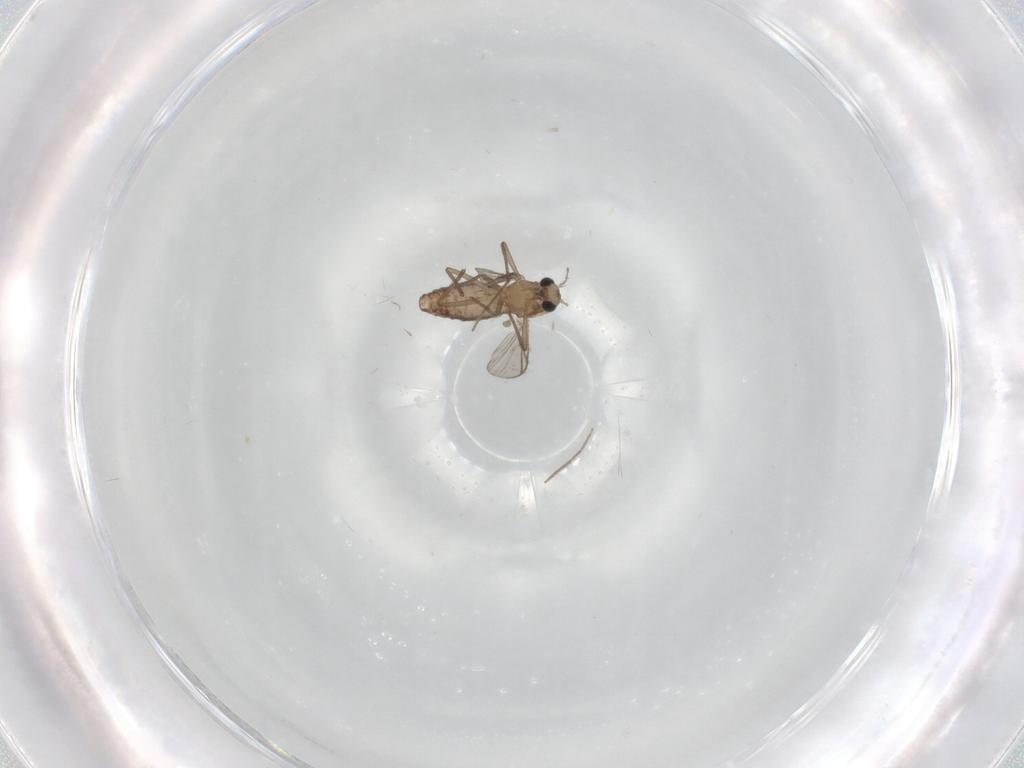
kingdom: Animalia
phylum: Arthropoda
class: Insecta
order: Diptera
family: Chironomidae
